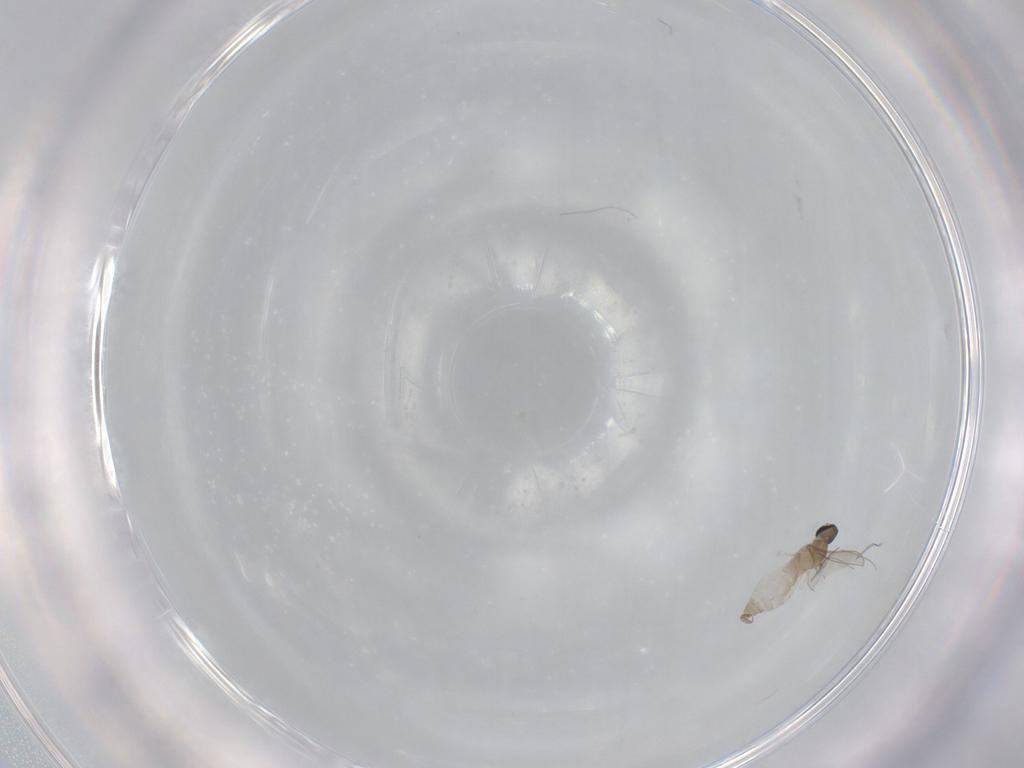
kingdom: Animalia
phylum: Arthropoda
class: Insecta
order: Diptera
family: Cecidomyiidae
